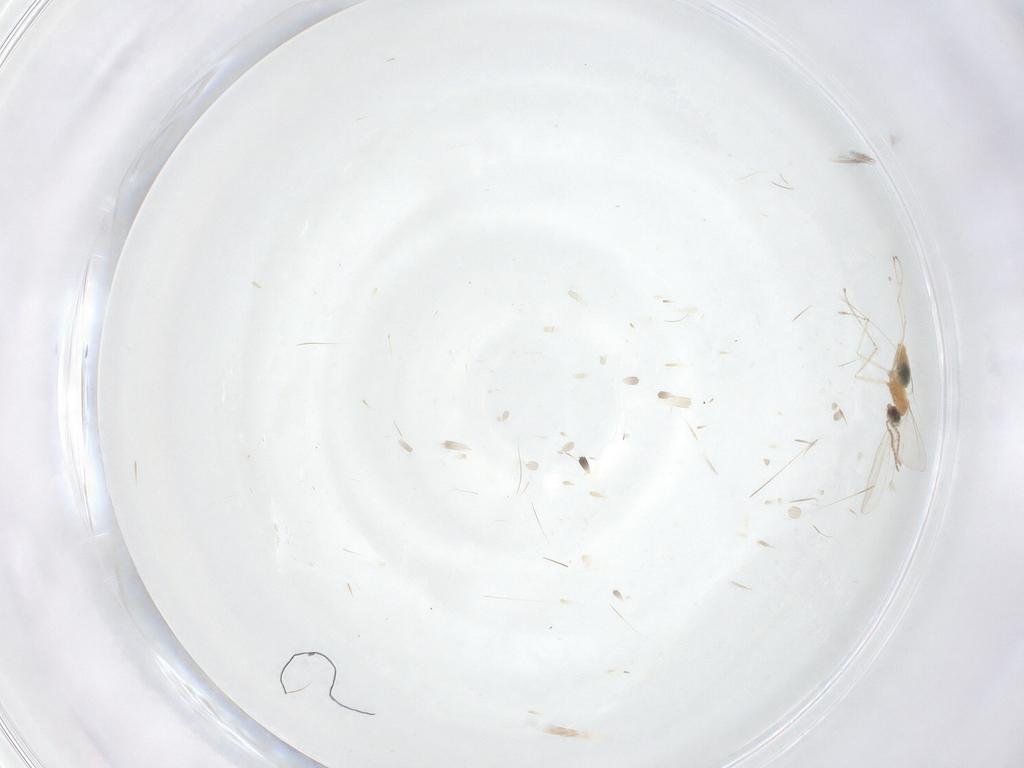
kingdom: Animalia
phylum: Arthropoda
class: Insecta
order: Diptera
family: Cecidomyiidae
